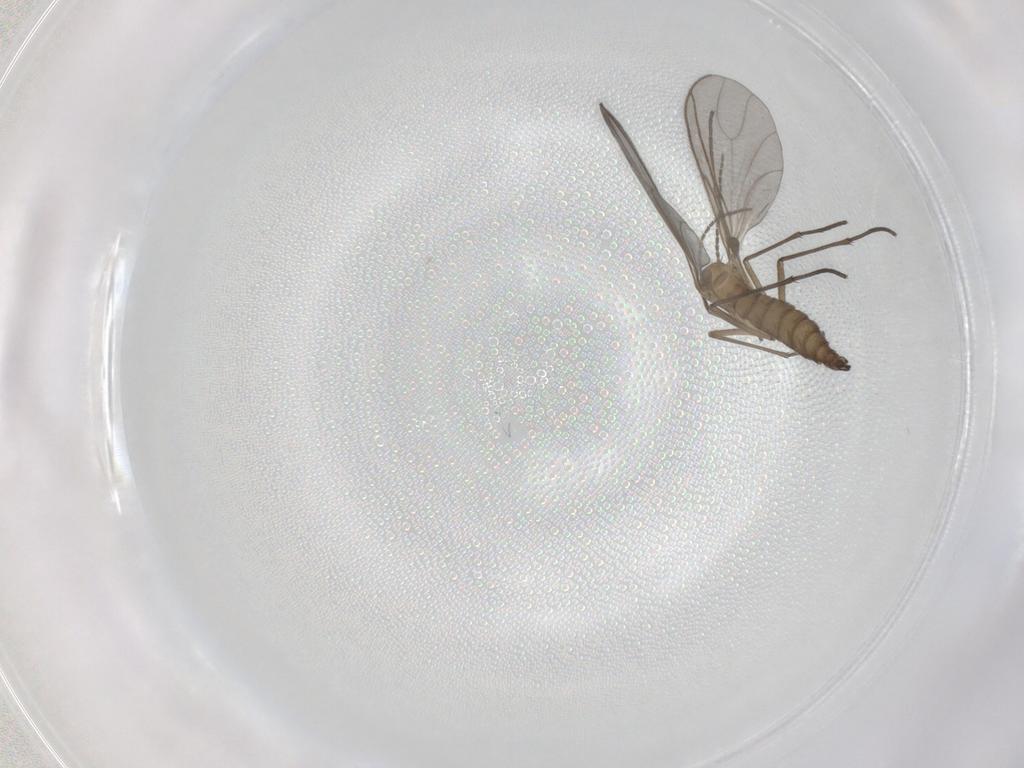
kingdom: Animalia
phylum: Arthropoda
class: Insecta
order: Diptera
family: Sciaridae
